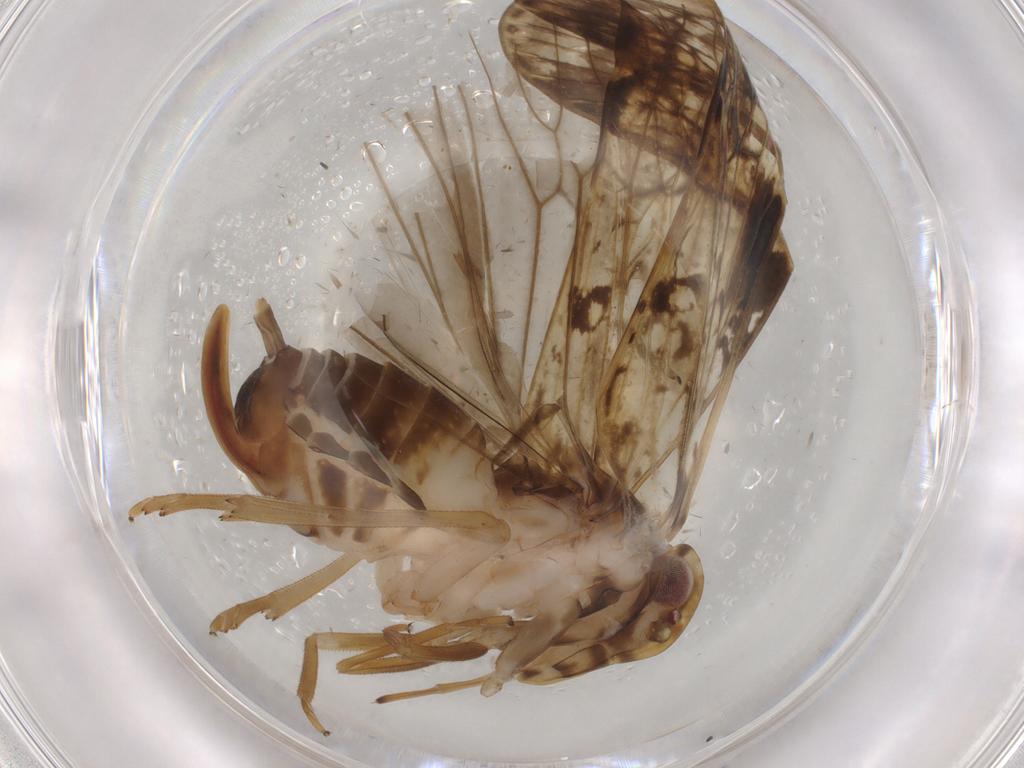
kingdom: Animalia
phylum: Arthropoda
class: Insecta
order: Hemiptera
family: Cixiidae
